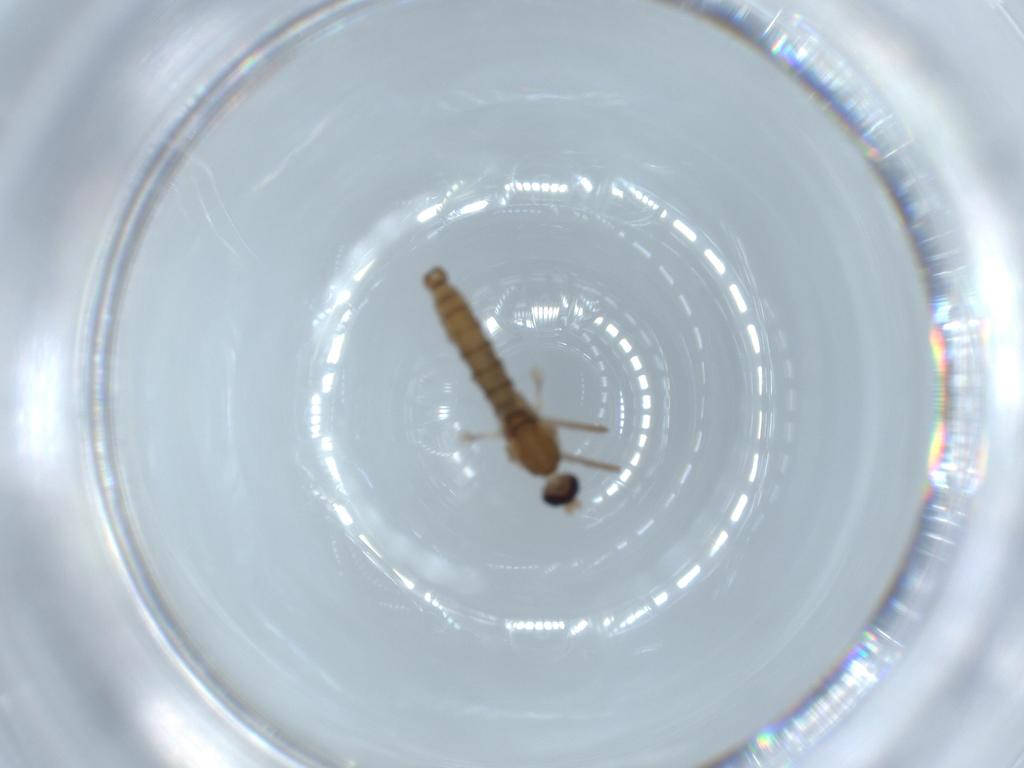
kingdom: Animalia
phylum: Arthropoda
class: Insecta
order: Diptera
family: Cecidomyiidae
